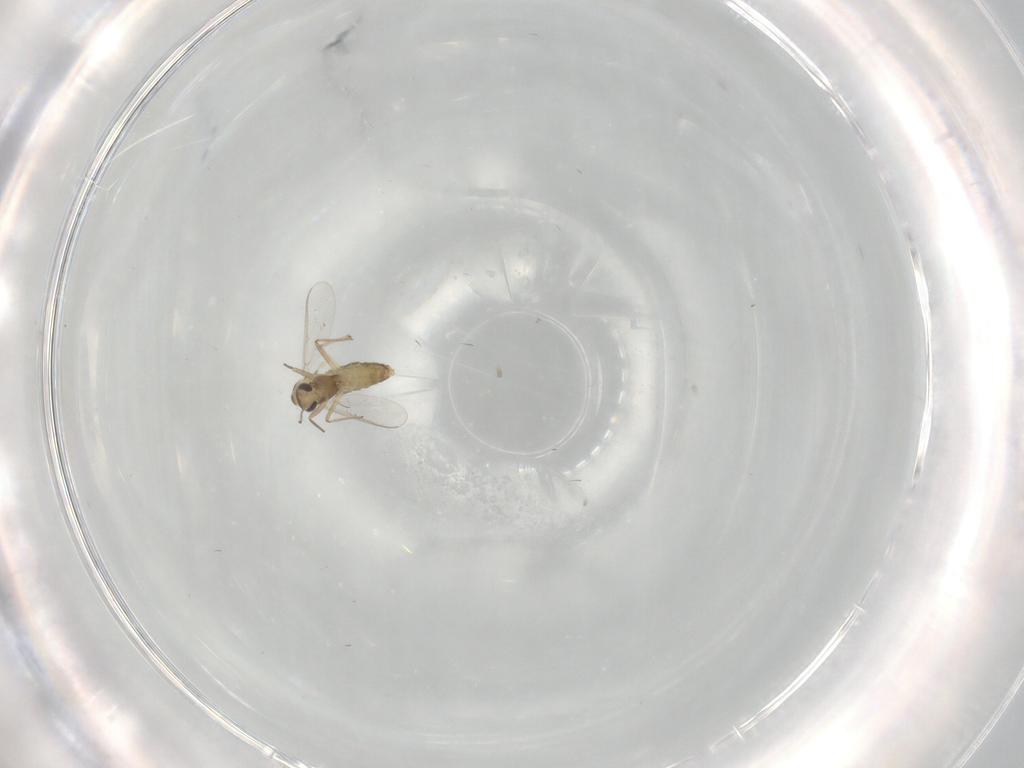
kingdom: Animalia
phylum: Arthropoda
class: Insecta
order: Diptera
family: Chironomidae
